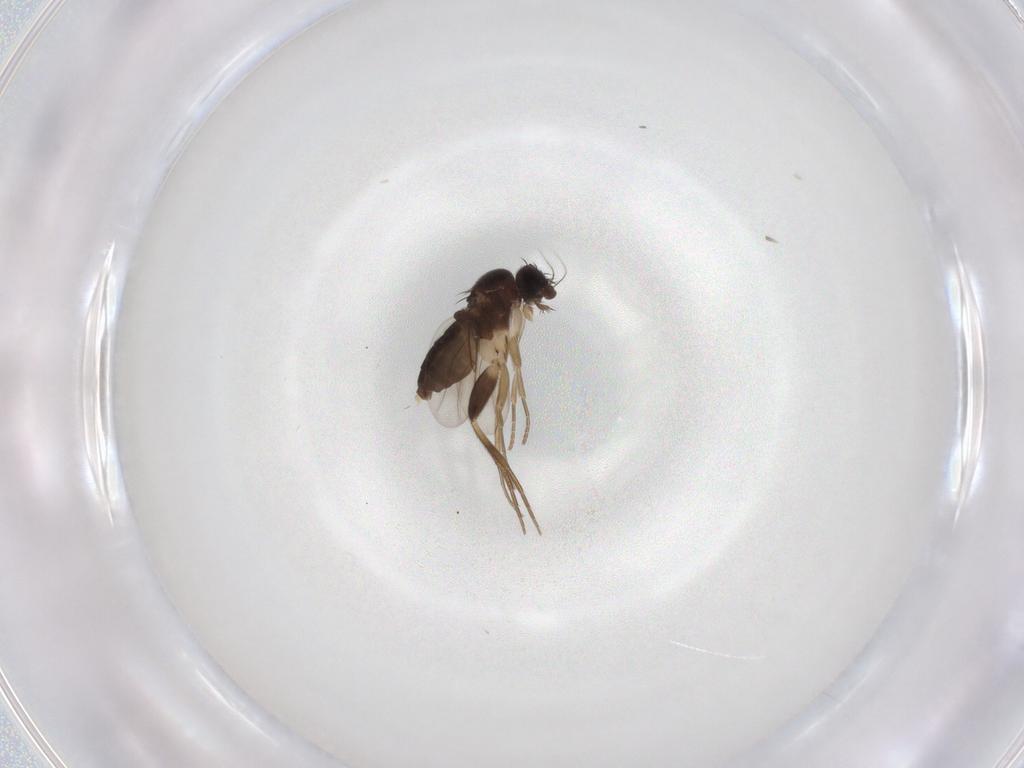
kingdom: Animalia
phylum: Arthropoda
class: Insecta
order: Diptera
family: Phoridae
